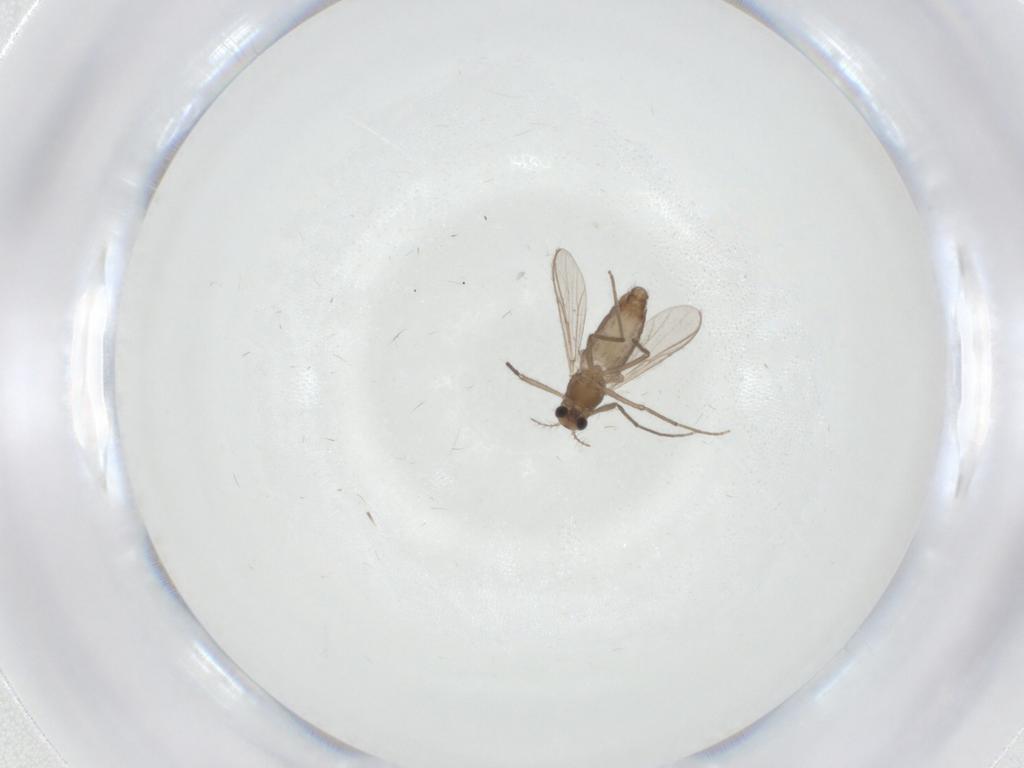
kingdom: Animalia
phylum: Arthropoda
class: Insecta
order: Diptera
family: Chironomidae
